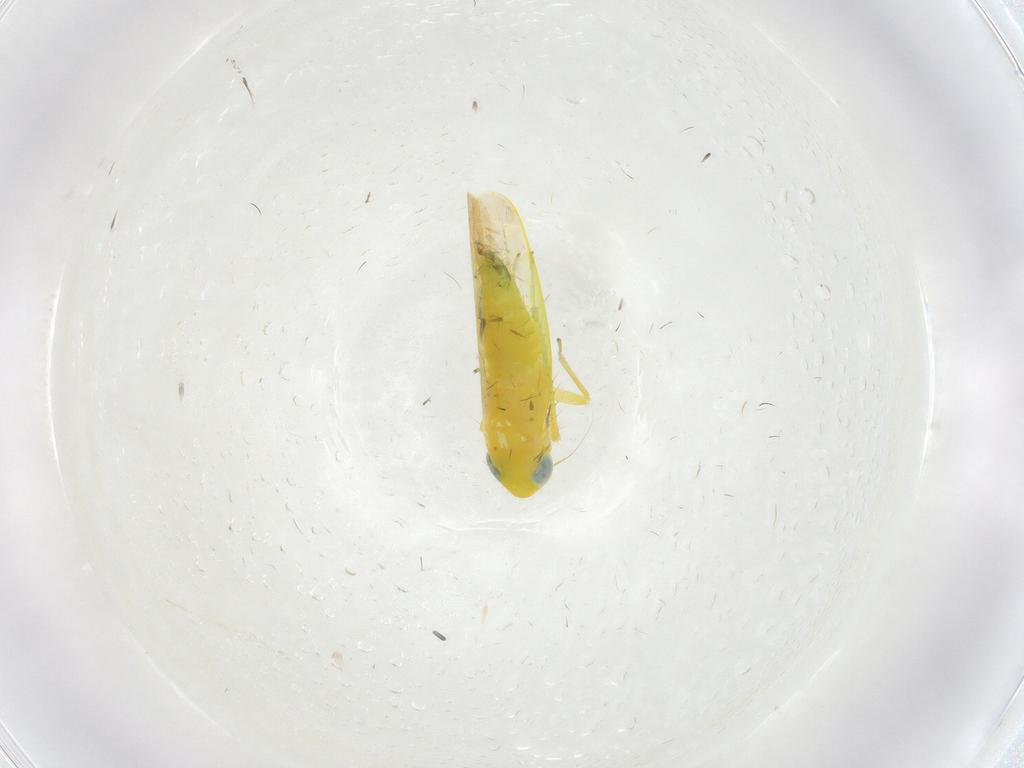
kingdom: Animalia
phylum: Arthropoda
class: Insecta
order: Hemiptera
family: Cicadellidae
